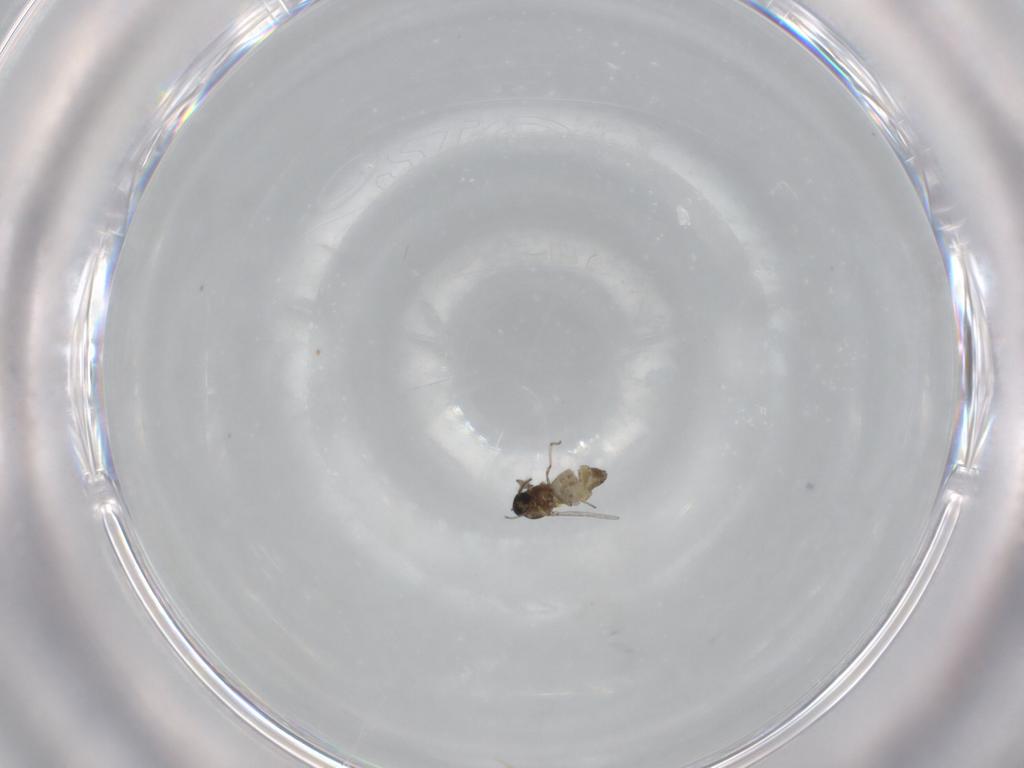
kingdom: Animalia
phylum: Arthropoda
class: Insecta
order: Diptera
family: Ceratopogonidae
